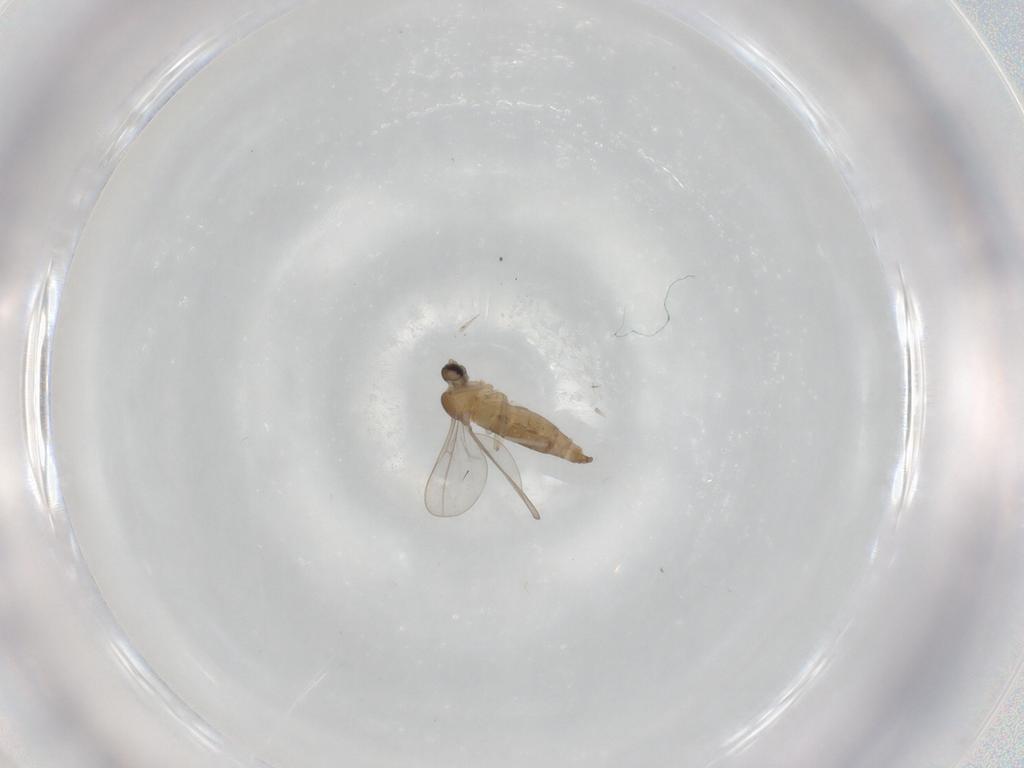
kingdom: Animalia
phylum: Arthropoda
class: Insecta
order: Diptera
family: Cecidomyiidae
